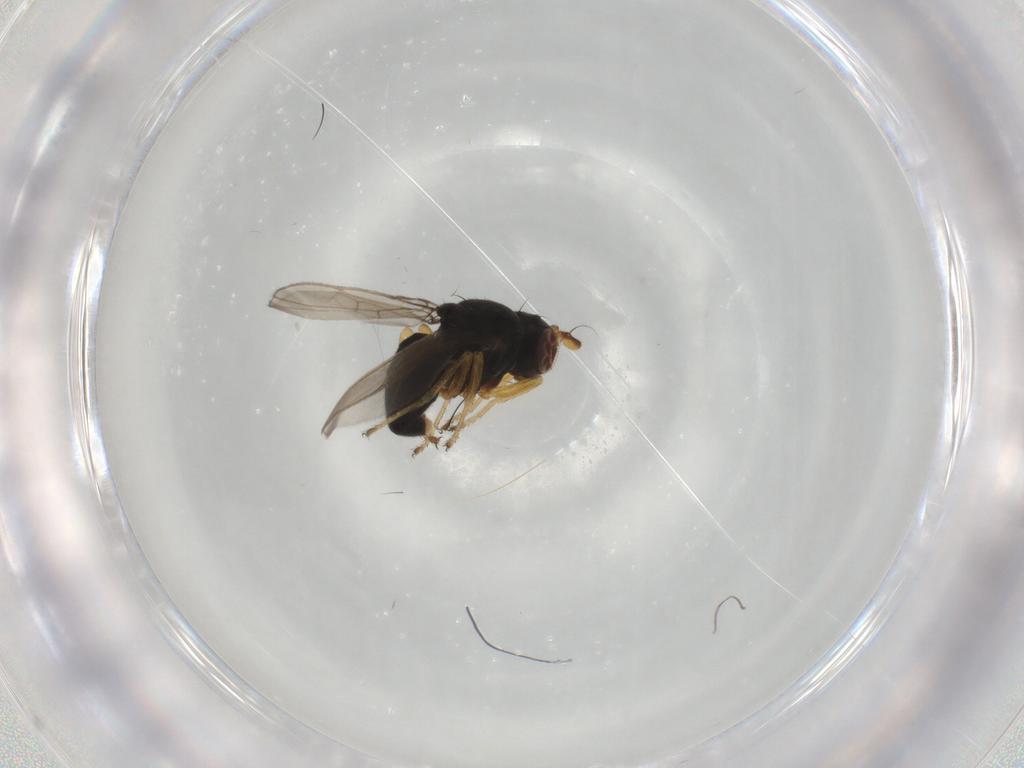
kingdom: Animalia
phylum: Arthropoda
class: Insecta
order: Diptera
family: Ephydridae
